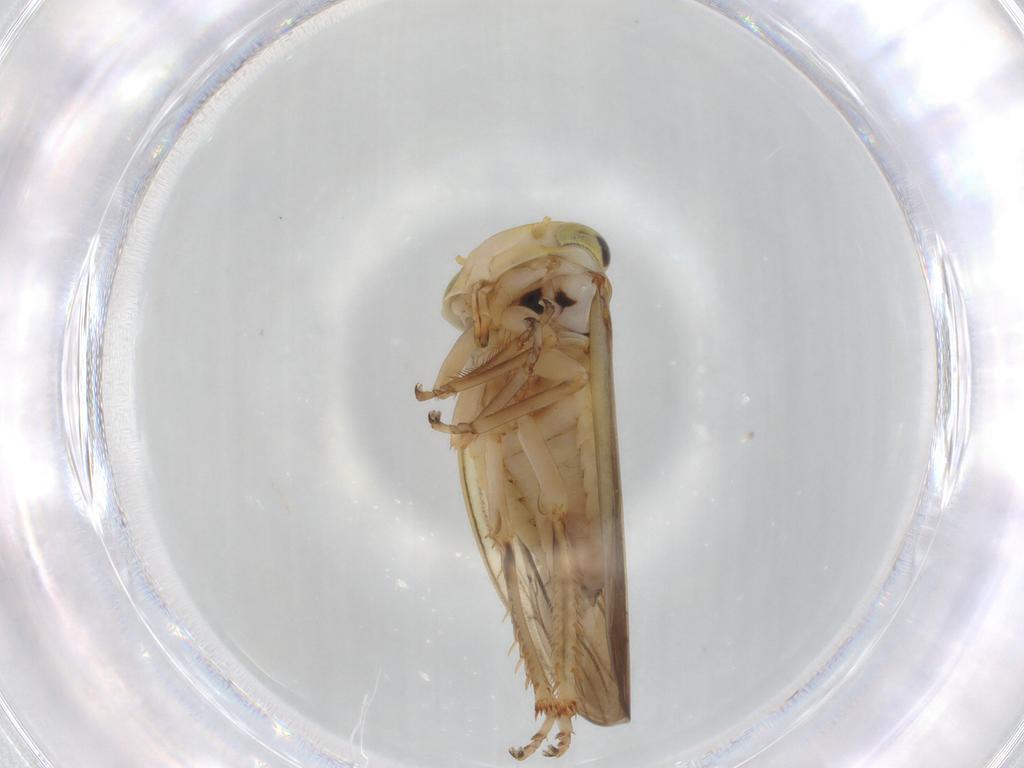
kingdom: Animalia
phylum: Arthropoda
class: Insecta
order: Hemiptera
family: Cicadellidae
